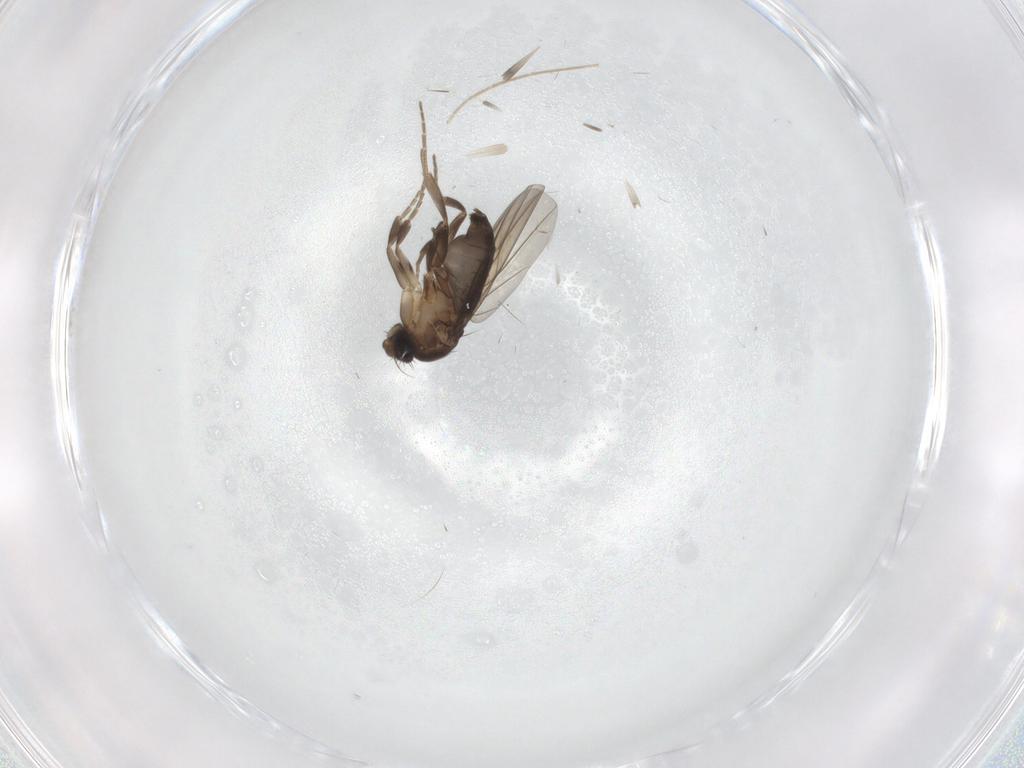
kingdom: Animalia
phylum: Arthropoda
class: Insecta
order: Diptera
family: Phoridae
